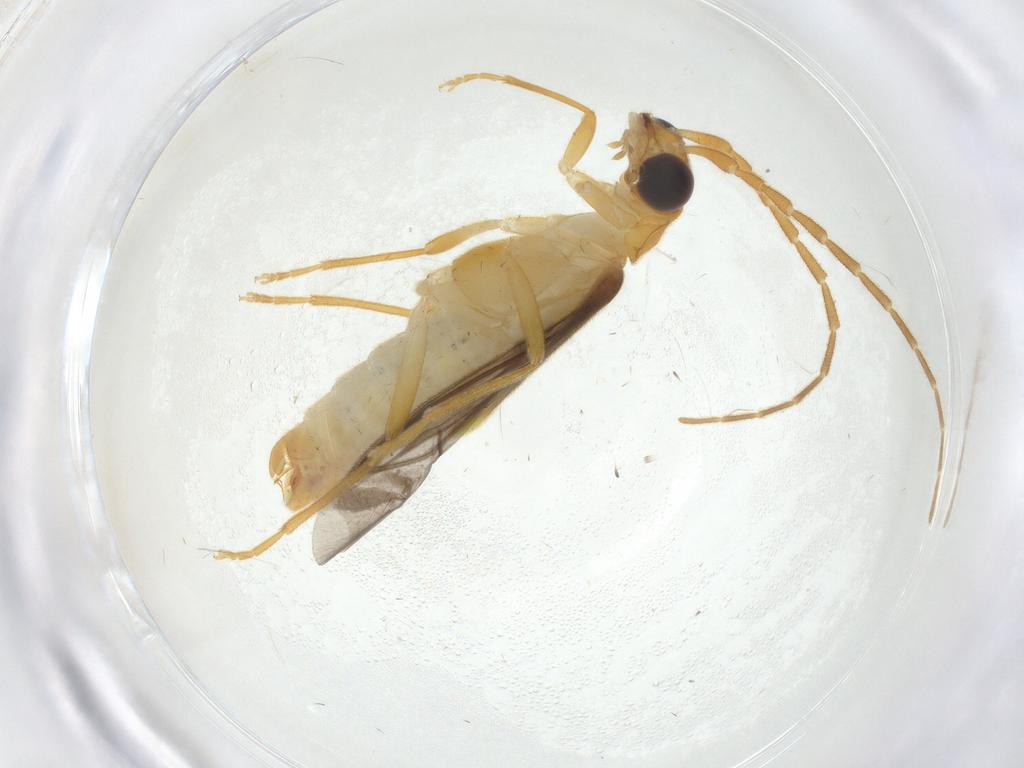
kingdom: Animalia
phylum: Arthropoda
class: Insecta
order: Coleoptera
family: Cantharidae
